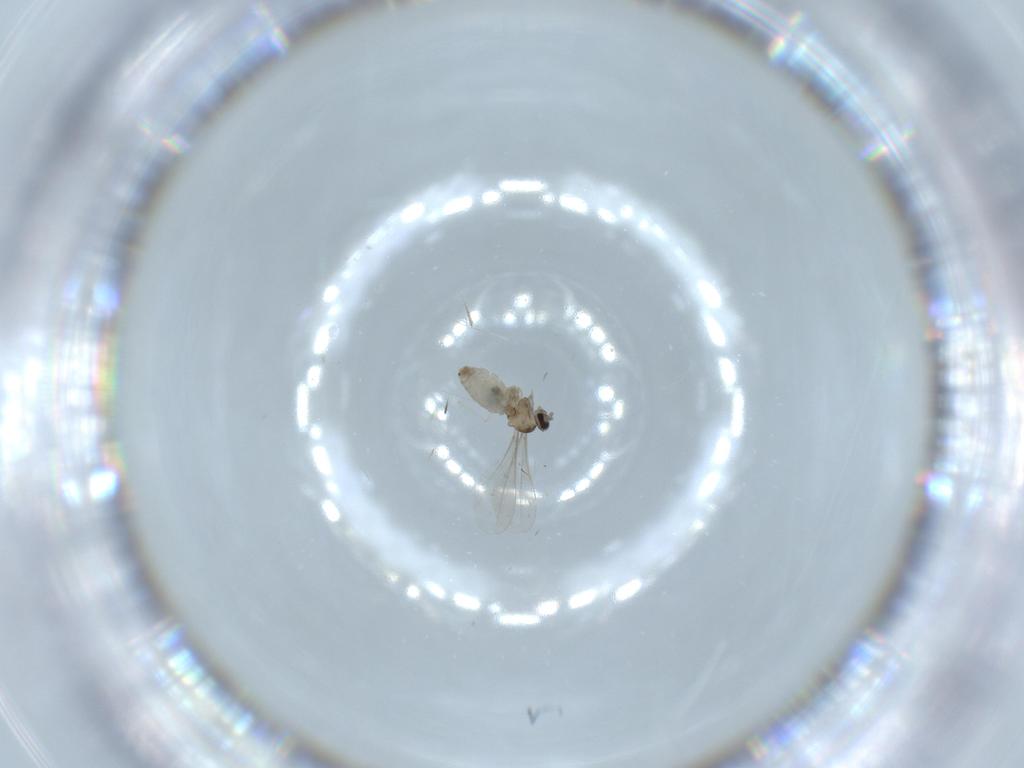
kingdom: Animalia
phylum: Arthropoda
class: Insecta
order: Diptera
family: Cecidomyiidae
